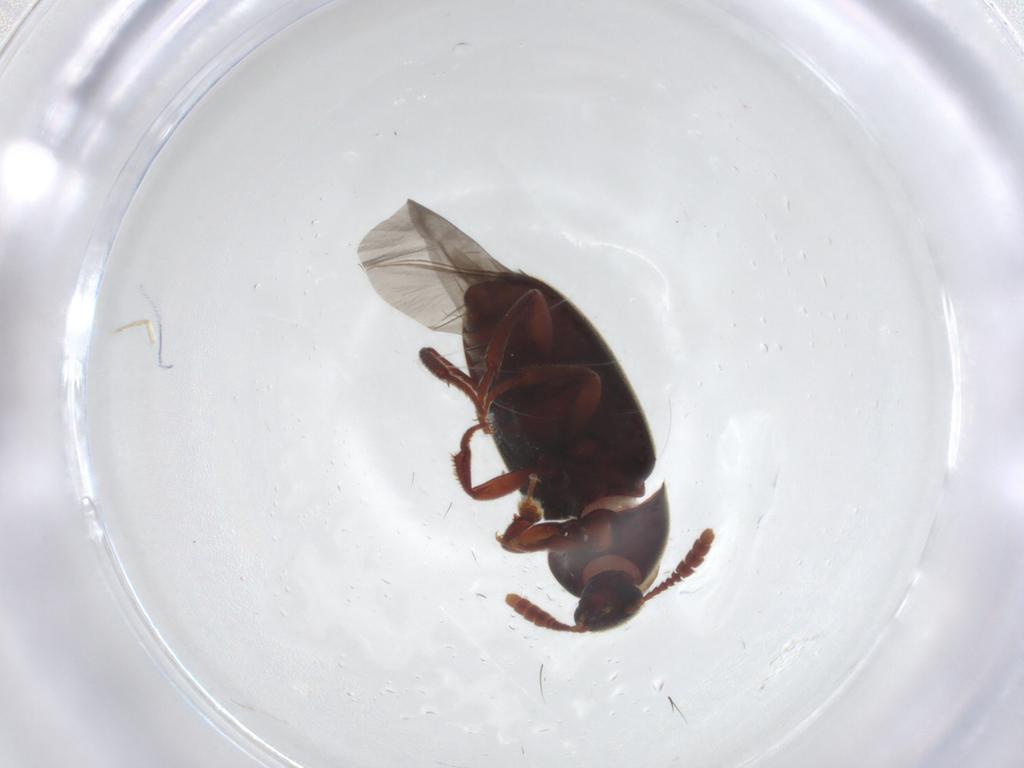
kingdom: Animalia
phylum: Arthropoda
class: Insecta
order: Coleoptera
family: Leiodidae
